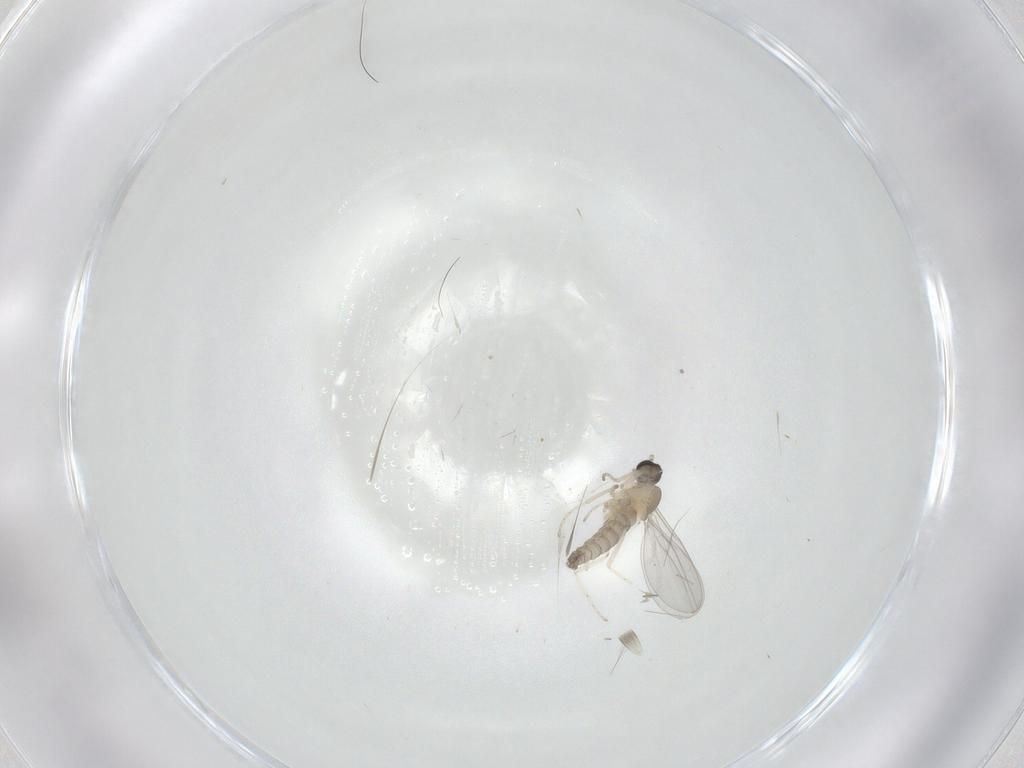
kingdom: Animalia
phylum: Arthropoda
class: Insecta
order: Diptera
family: Cecidomyiidae
